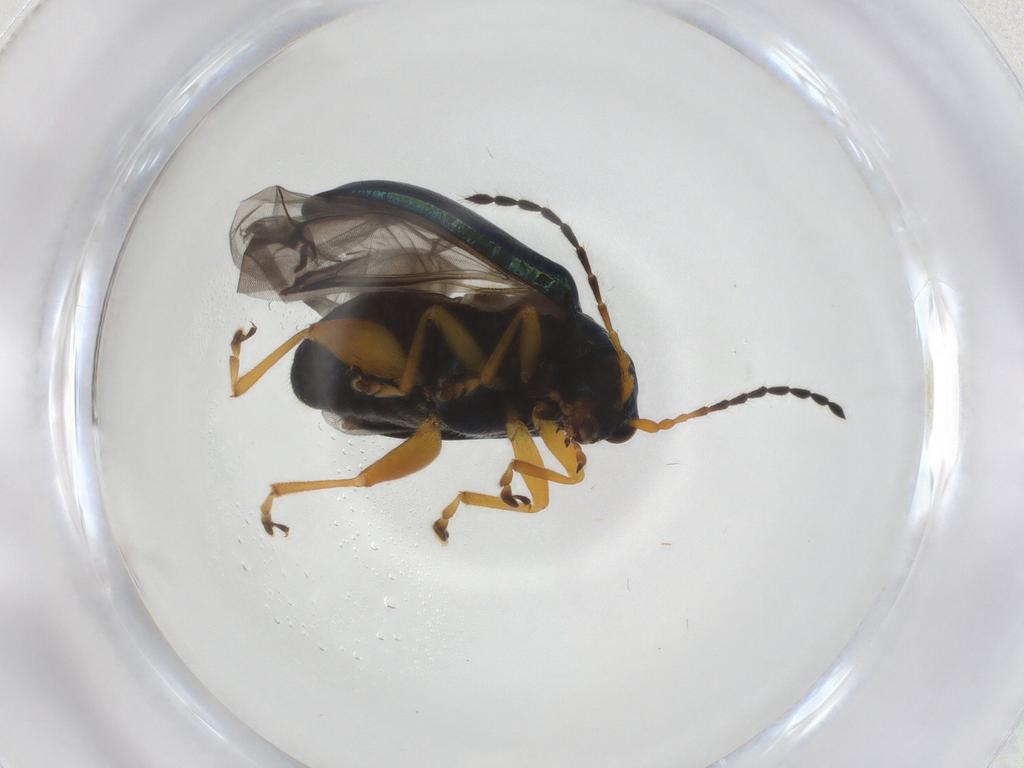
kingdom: Animalia
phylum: Arthropoda
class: Insecta
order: Coleoptera
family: Chrysomelidae
